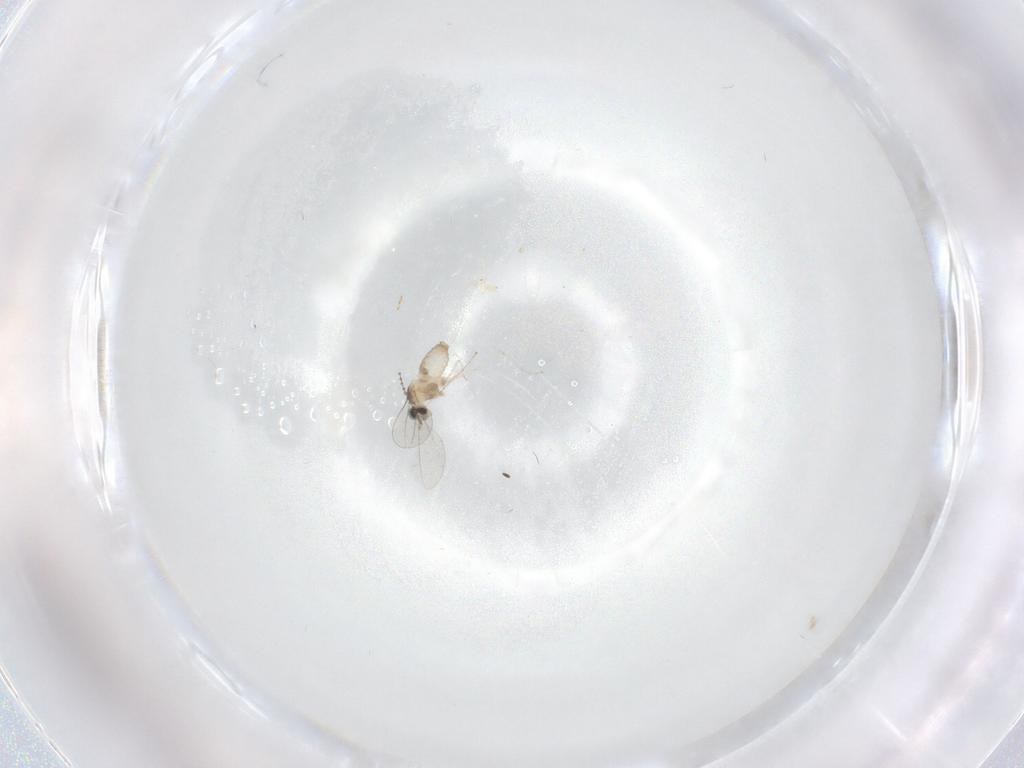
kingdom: Animalia
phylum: Arthropoda
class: Insecta
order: Diptera
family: Cecidomyiidae
